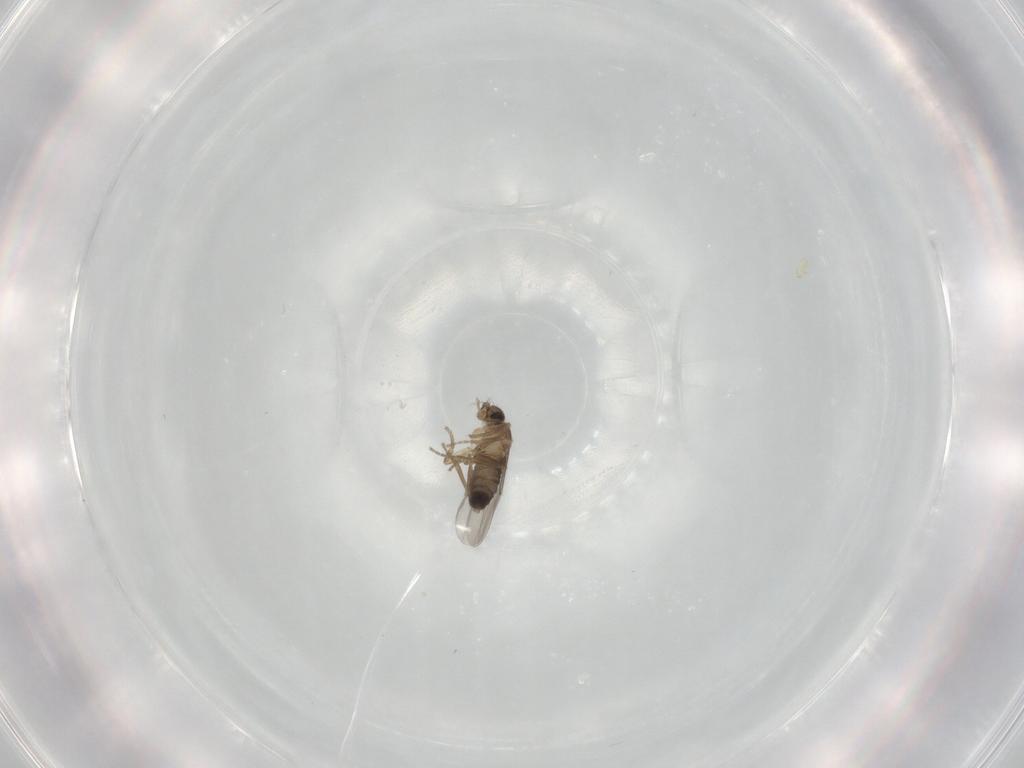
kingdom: Animalia
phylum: Arthropoda
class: Insecta
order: Diptera
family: Phoridae
